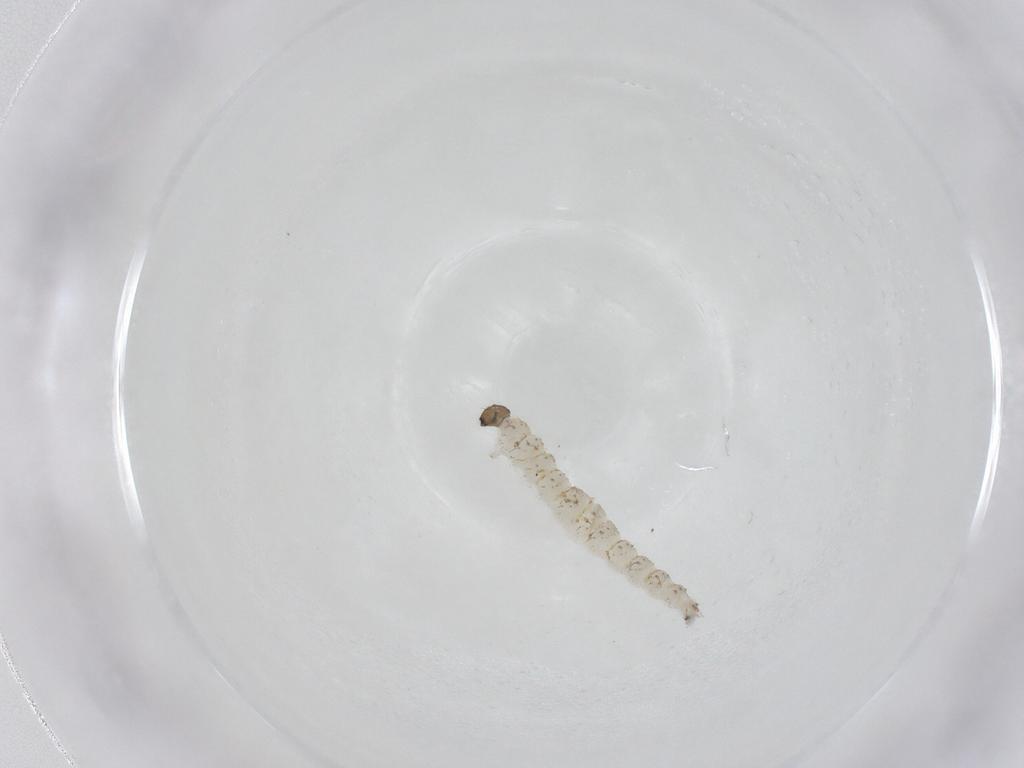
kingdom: Animalia
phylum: Arthropoda
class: Insecta
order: Diptera
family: Ceratopogonidae
